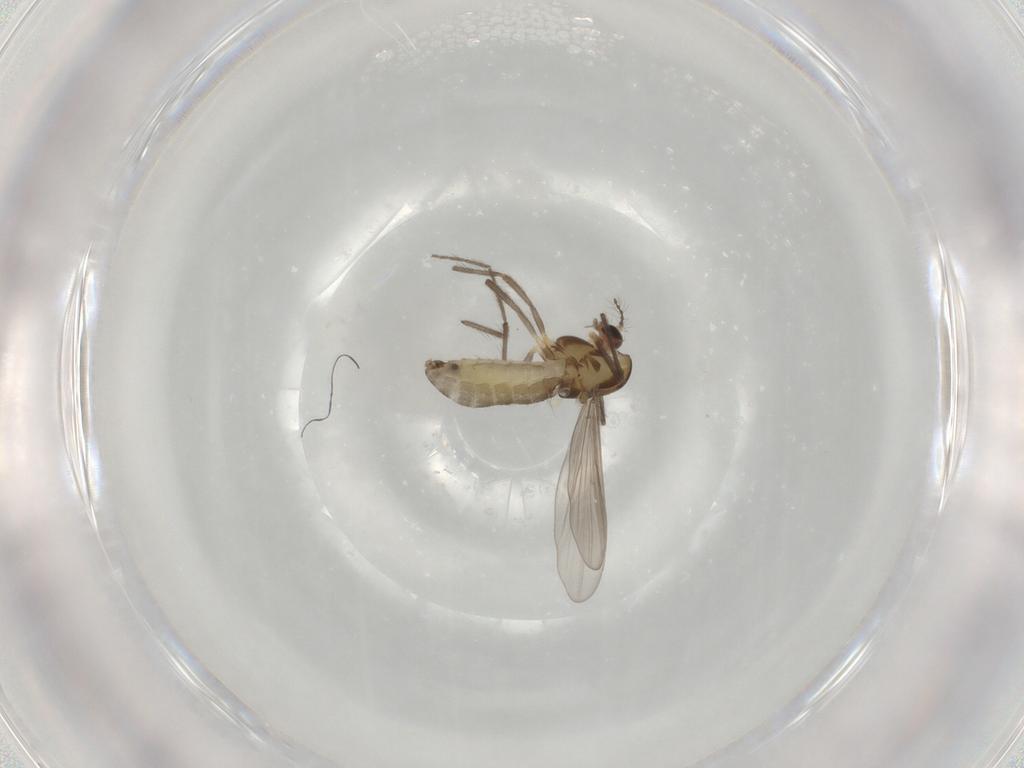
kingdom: Animalia
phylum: Arthropoda
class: Insecta
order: Diptera
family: Chironomidae
